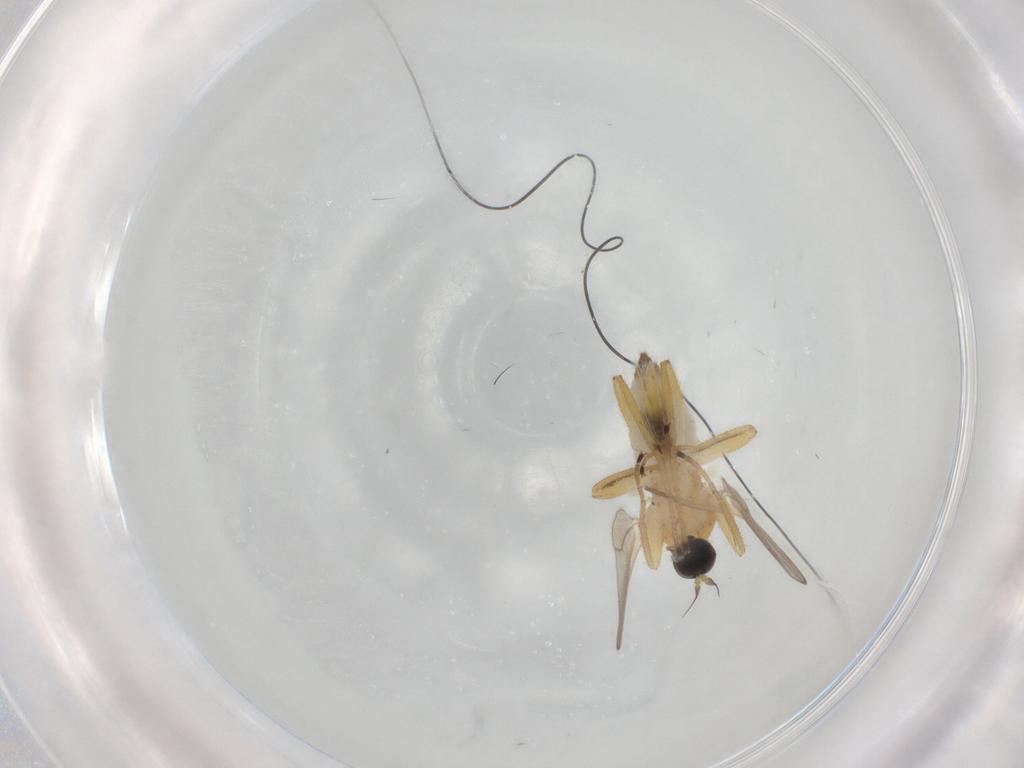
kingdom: Animalia
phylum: Arthropoda
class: Insecta
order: Diptera
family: Hybotidae
